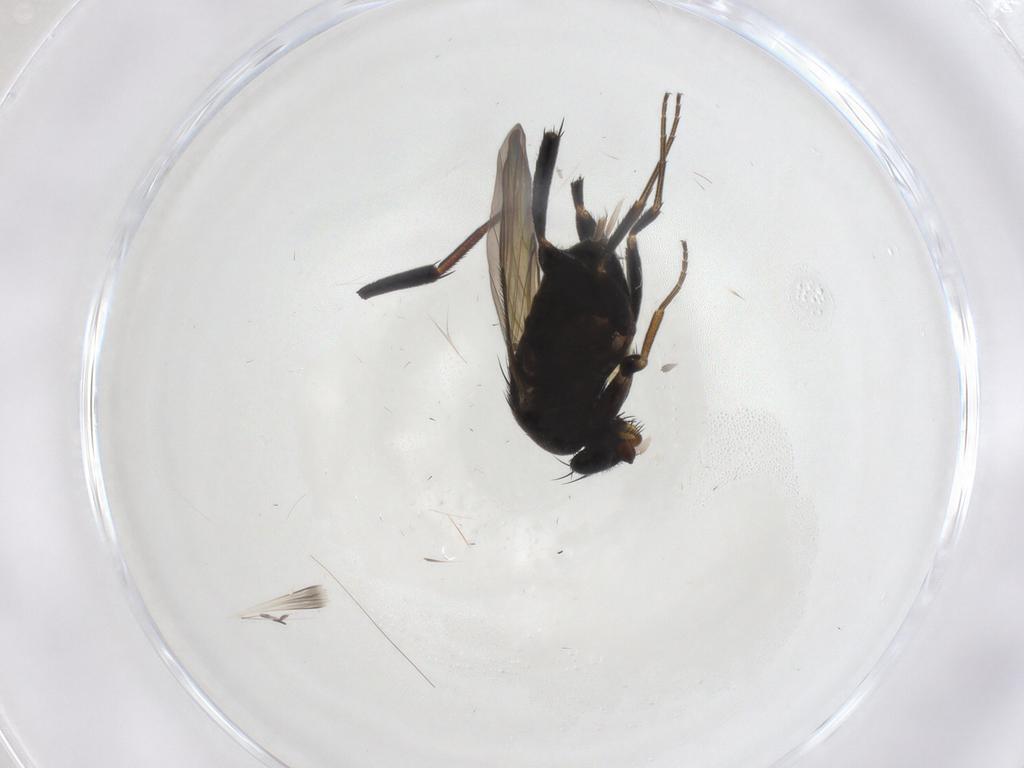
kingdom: Animalia
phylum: Arthropoda
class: Insecta
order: Diptera
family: Phoridae
